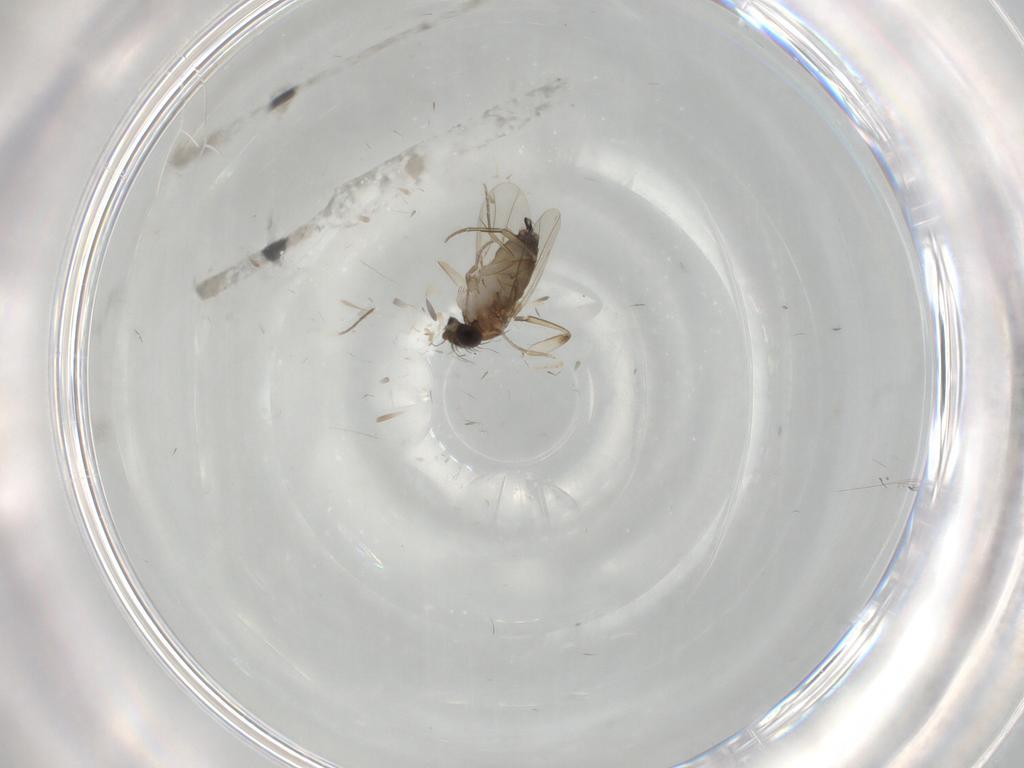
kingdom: Animalia
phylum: Arthropoda
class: Insecta
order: Diptera
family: Phoridae
